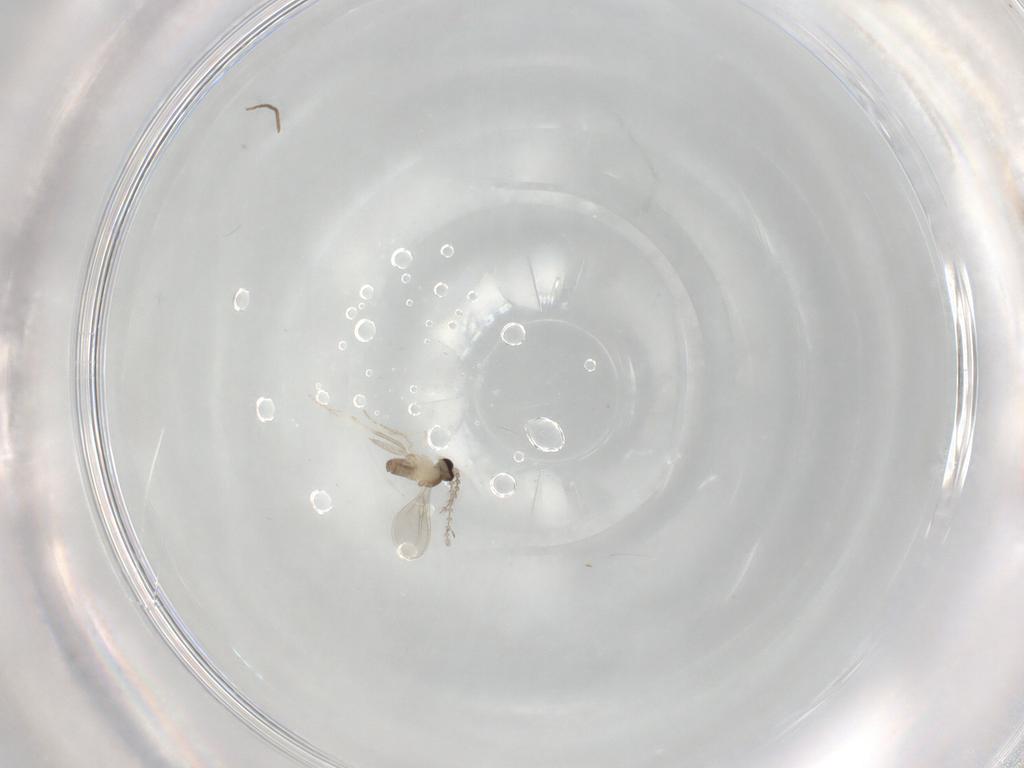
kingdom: Animalia
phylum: Arthropoda
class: Insecta
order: Diptera
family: Cecidomyiidae
